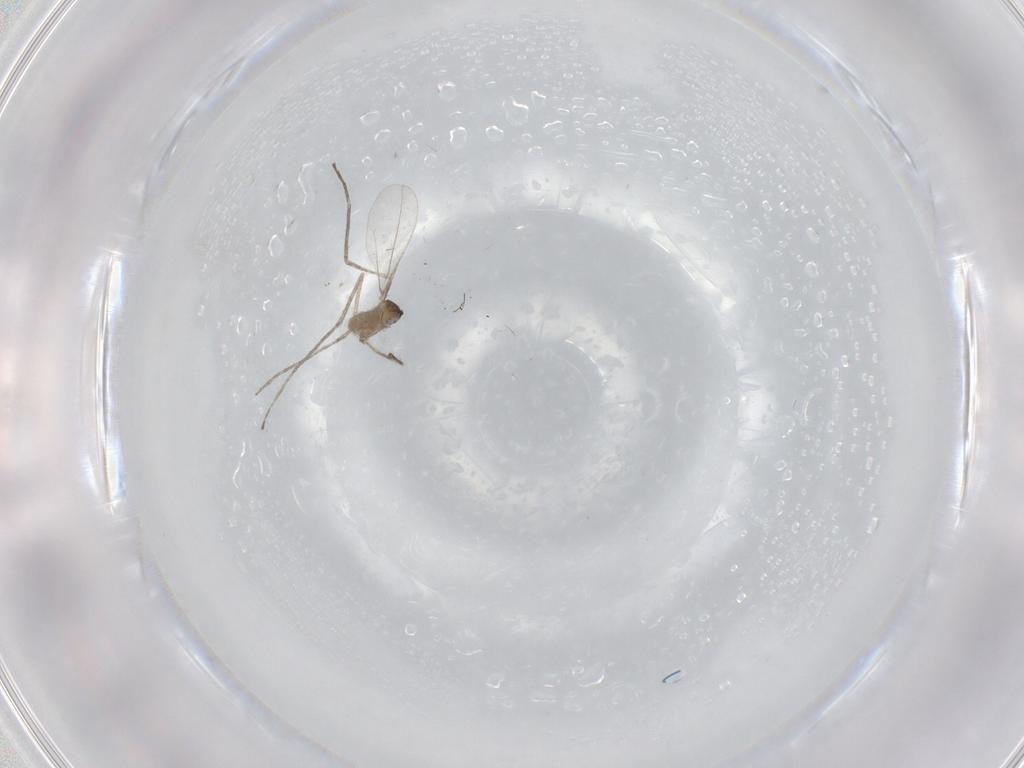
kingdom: Animalia
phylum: Arthropoda
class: Insecta
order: Diptera
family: Cecidomyiidae
